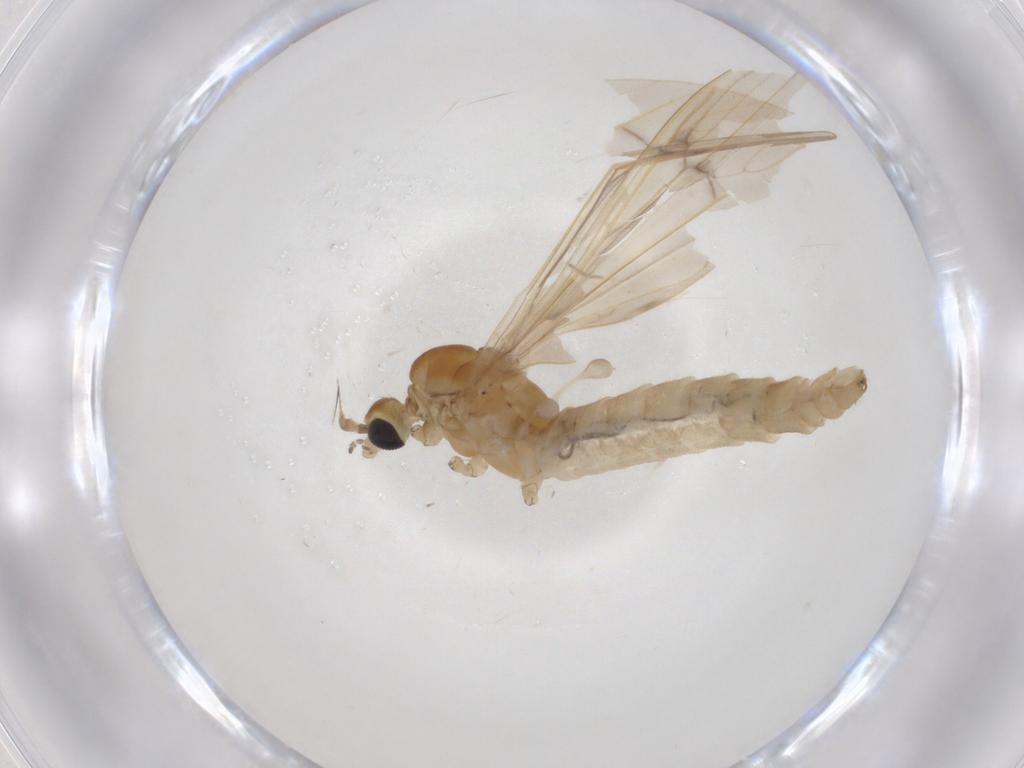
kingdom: Animalia
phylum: Arthropoda
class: Insecta
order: Diptera
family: Limoniidae
